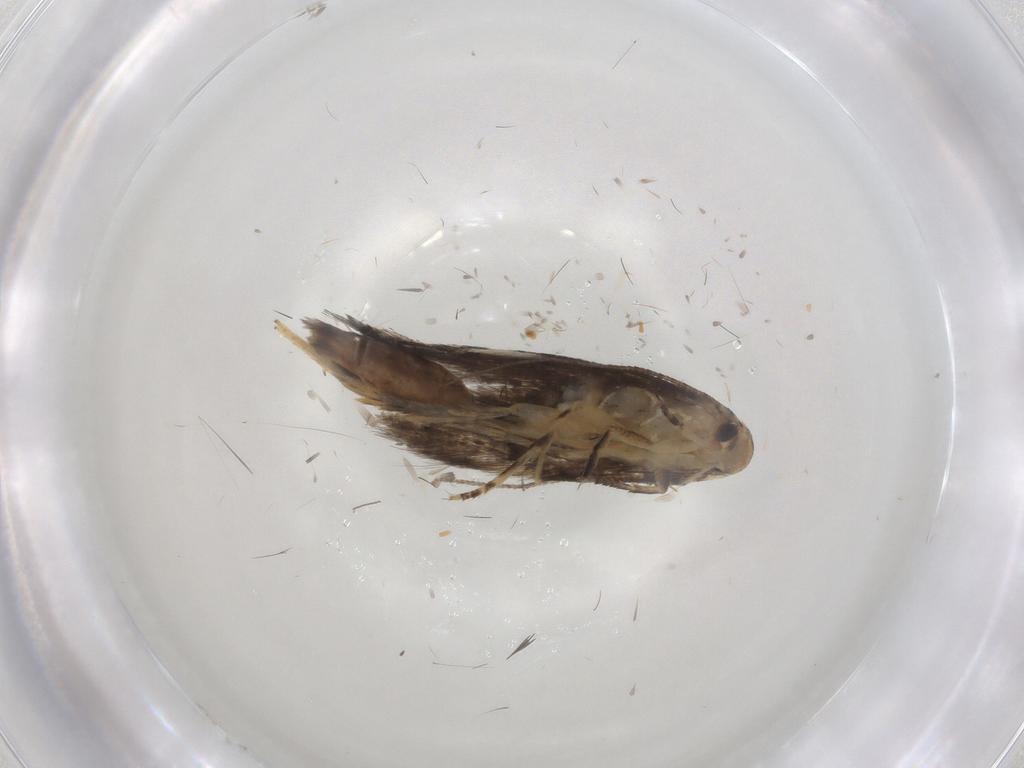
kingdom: Animalia
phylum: Arthropoda
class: Insecta
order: Lepidoptera
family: Elachistidae
